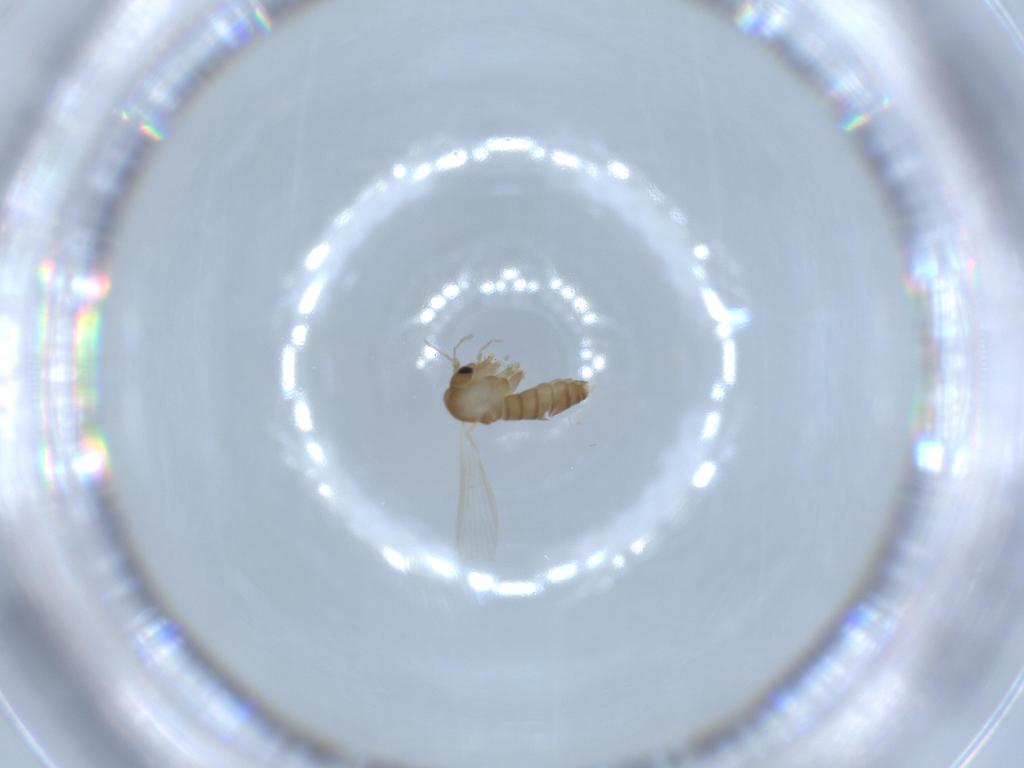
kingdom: Animalia
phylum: Arthropoda
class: Insecta
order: Diptera
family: Psychodidae
